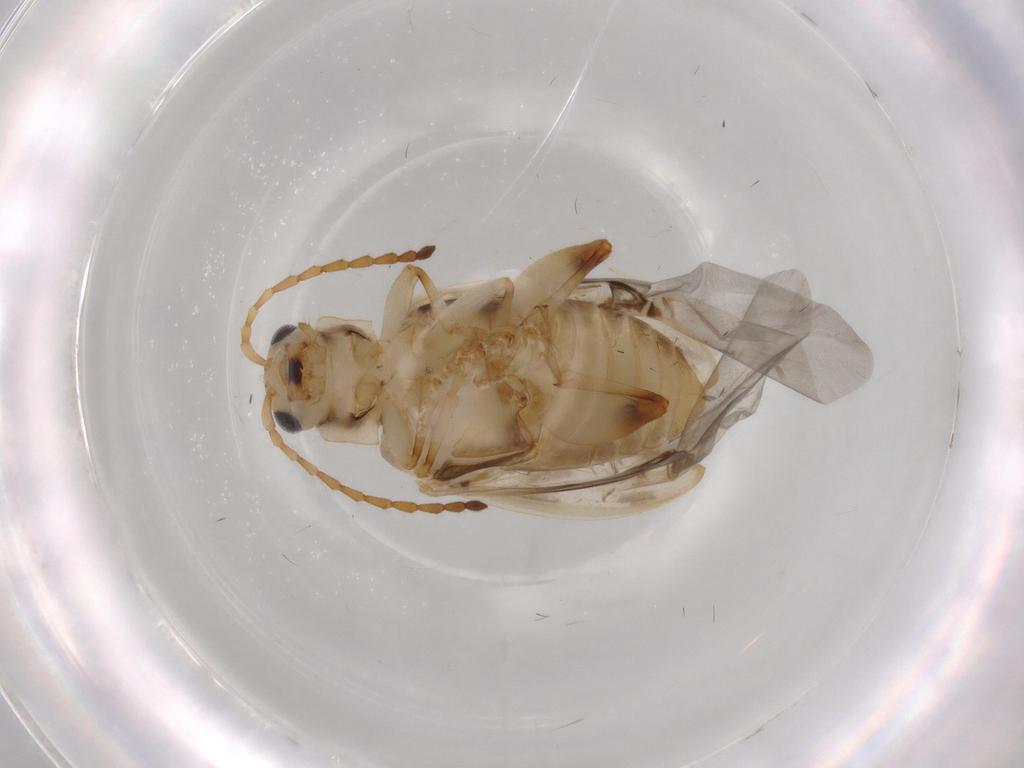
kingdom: Animalia
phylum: Arthropoda
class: Insecta
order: Coleoptera
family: Chrysomelidae
